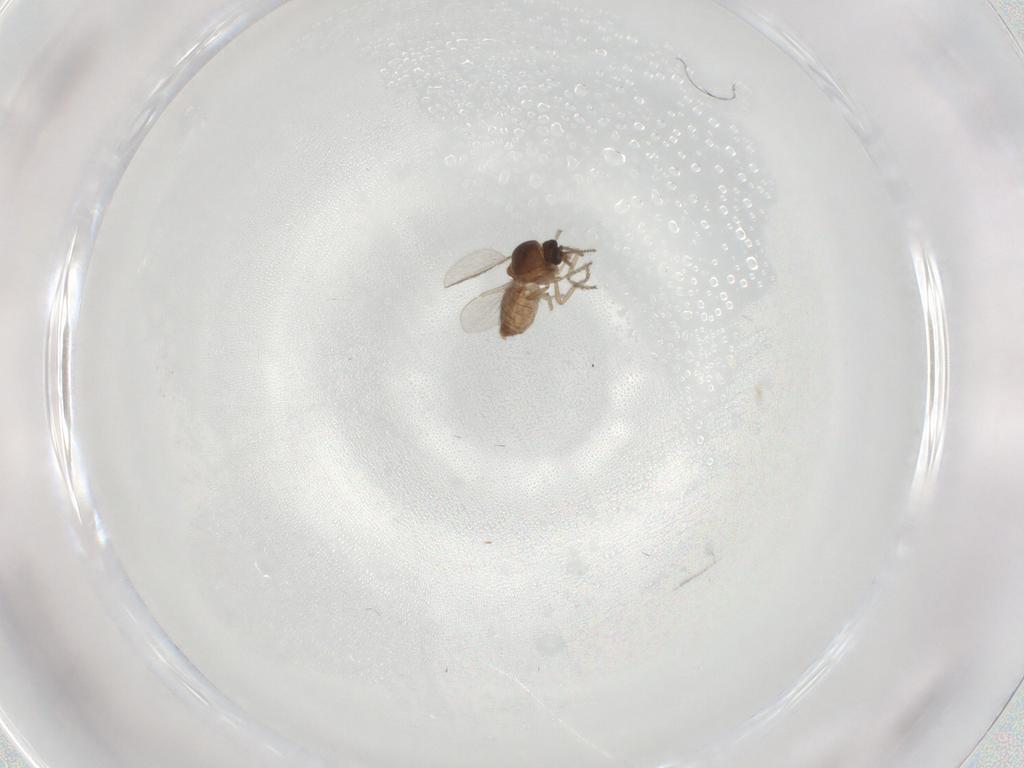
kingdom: Animalia
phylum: Arthropoda
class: Insecta
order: Diptera
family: Ceratopogonidae
